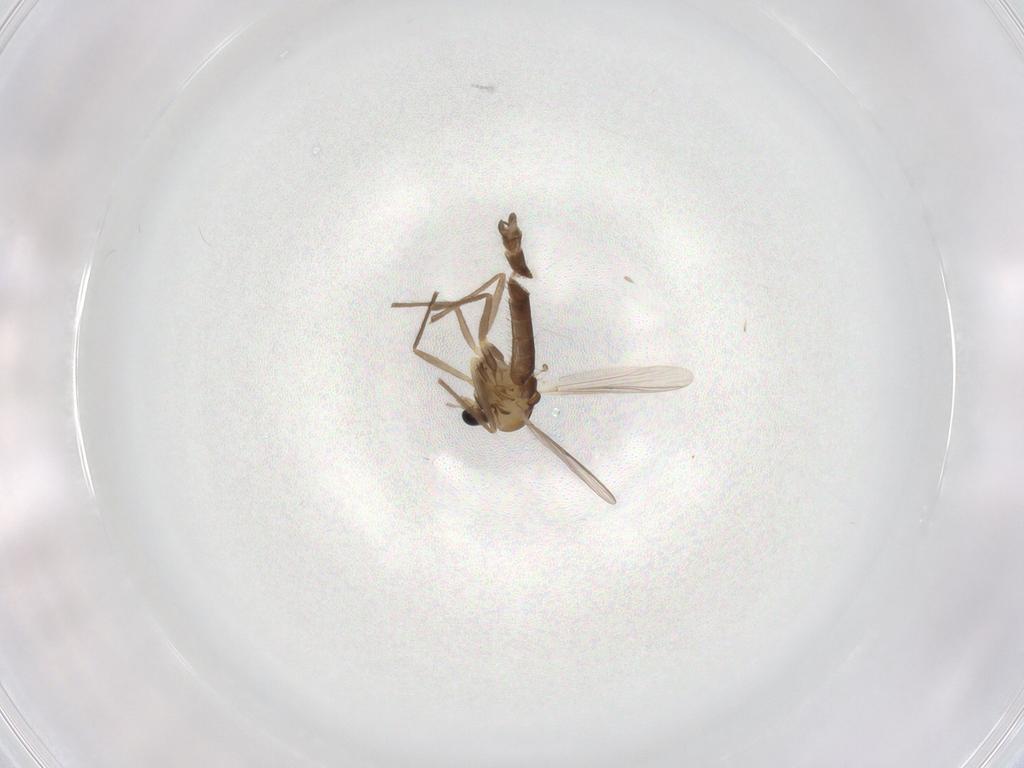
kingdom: Animalia
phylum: Arthropoda
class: Insecta
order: Diptera
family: Chironomidae
